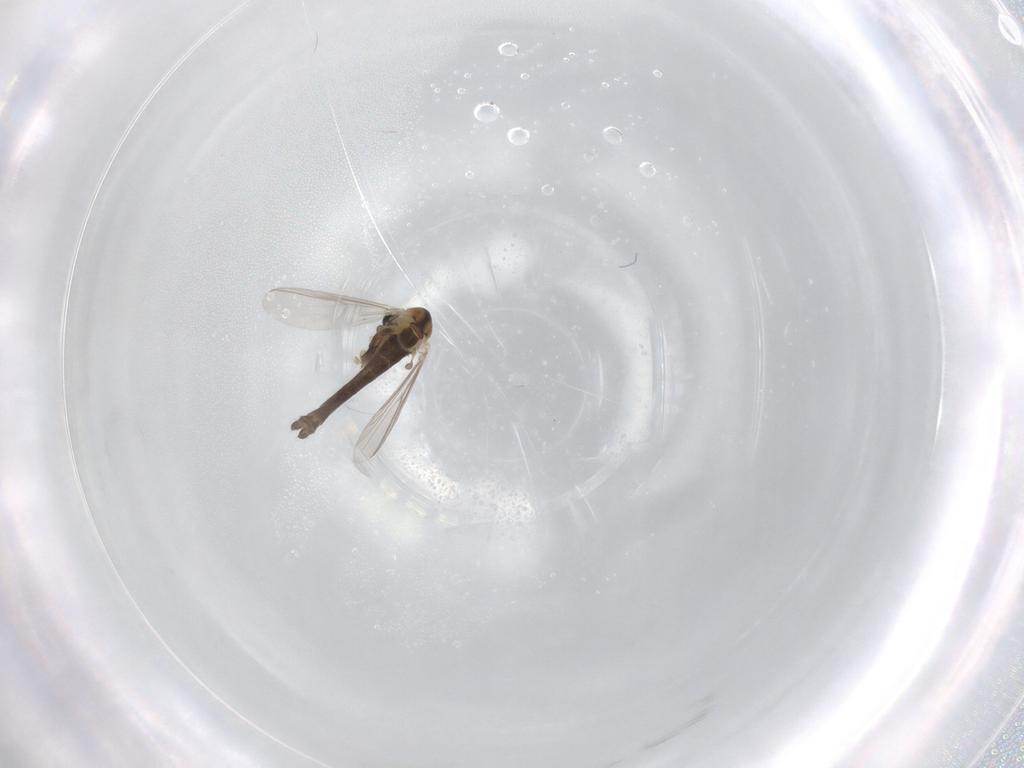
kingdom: Animalia
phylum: Arthropoda
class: Insecta
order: Diptera
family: Chironomidae
